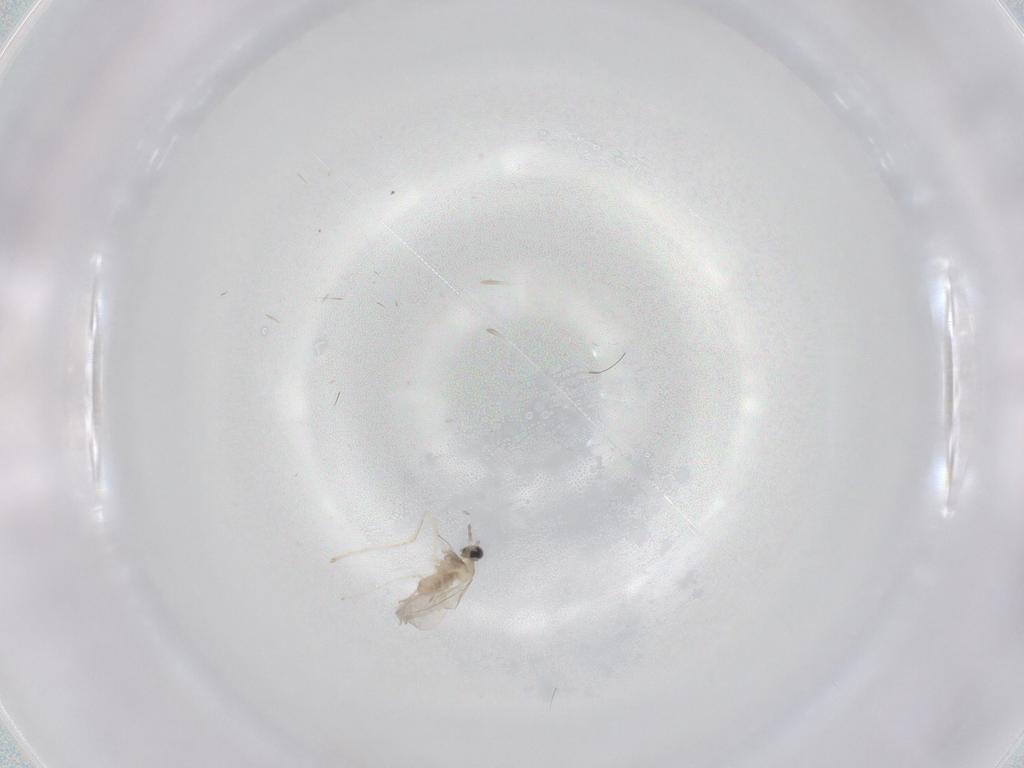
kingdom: Animalia
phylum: Arthropoda
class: Insecta
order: Diptera
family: Cecidomyiidae
